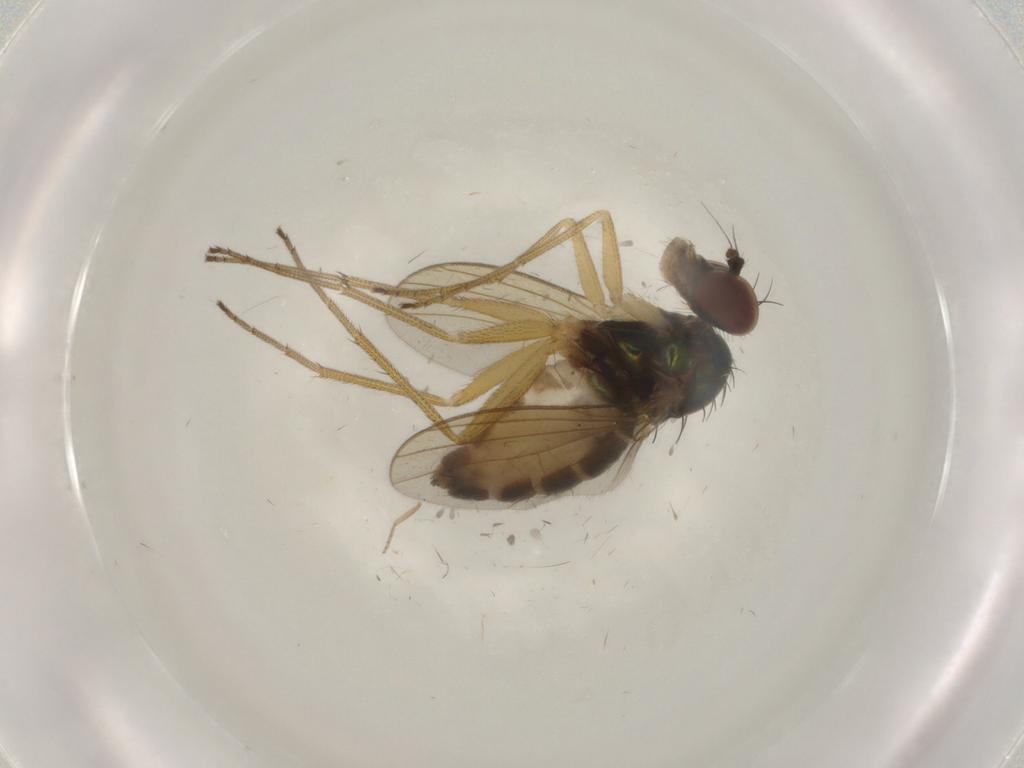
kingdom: Animalia
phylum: Arthropoda
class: Insecta
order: Diptera
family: Dolichopodidae
